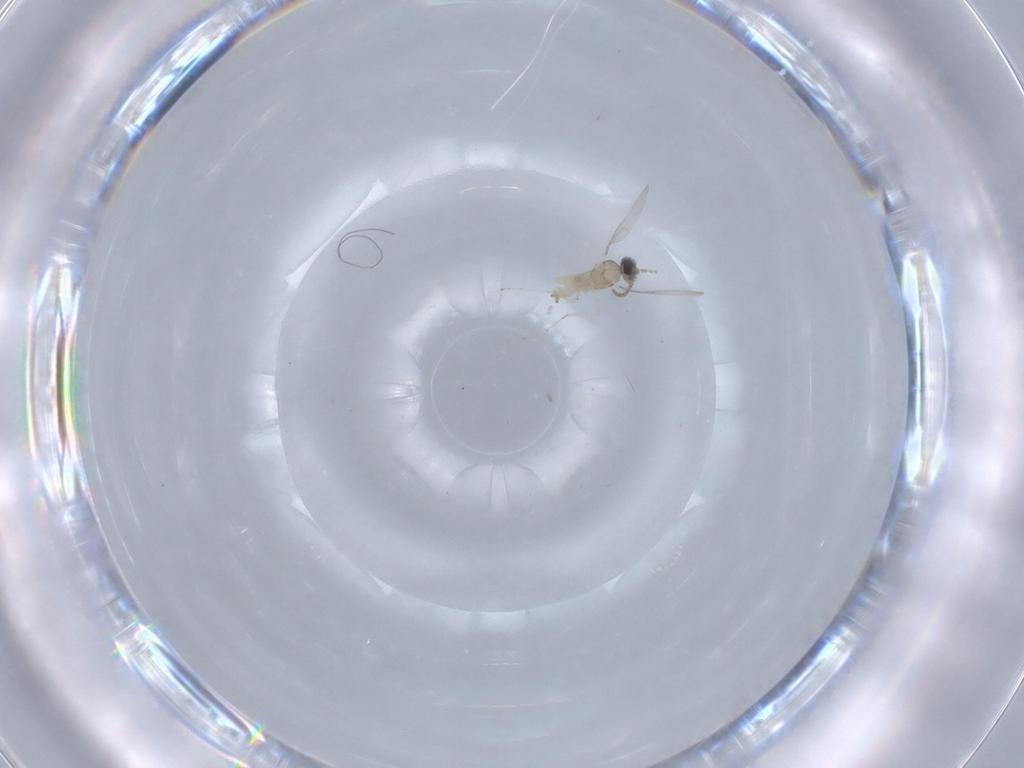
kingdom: Animalia
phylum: Arthropoda
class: Insecta
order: Diptera
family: Cecidomyiidae
